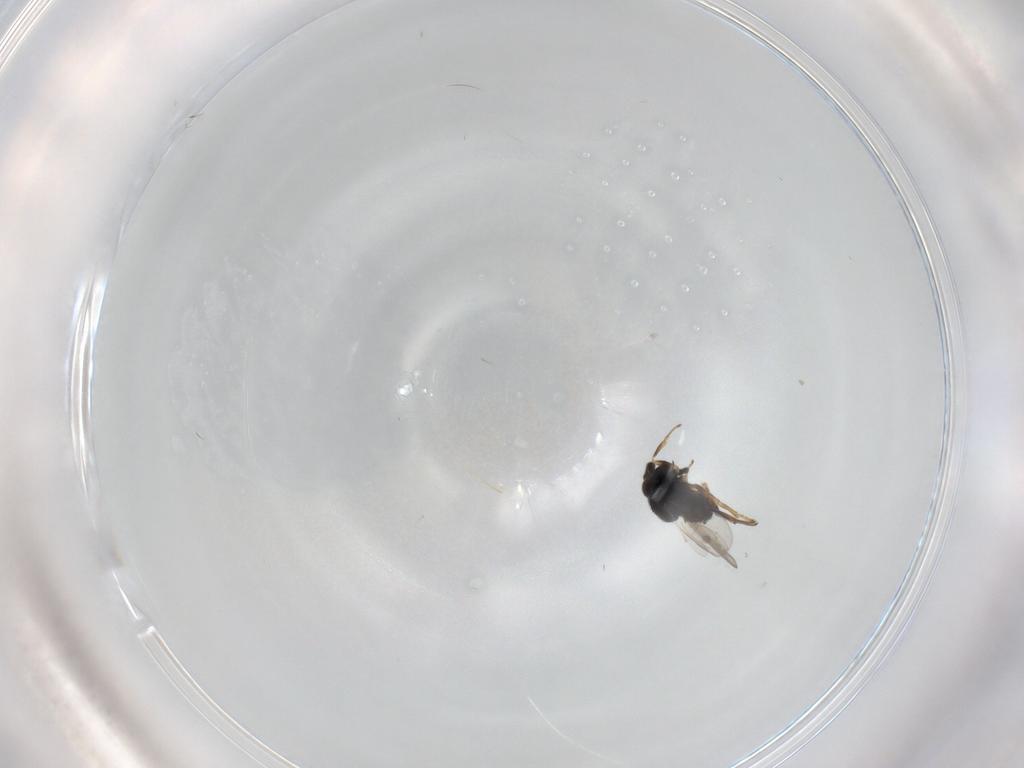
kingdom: Animalia
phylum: Arthropoda
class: Insecta
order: Hymenoptera
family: Encyrtidae
